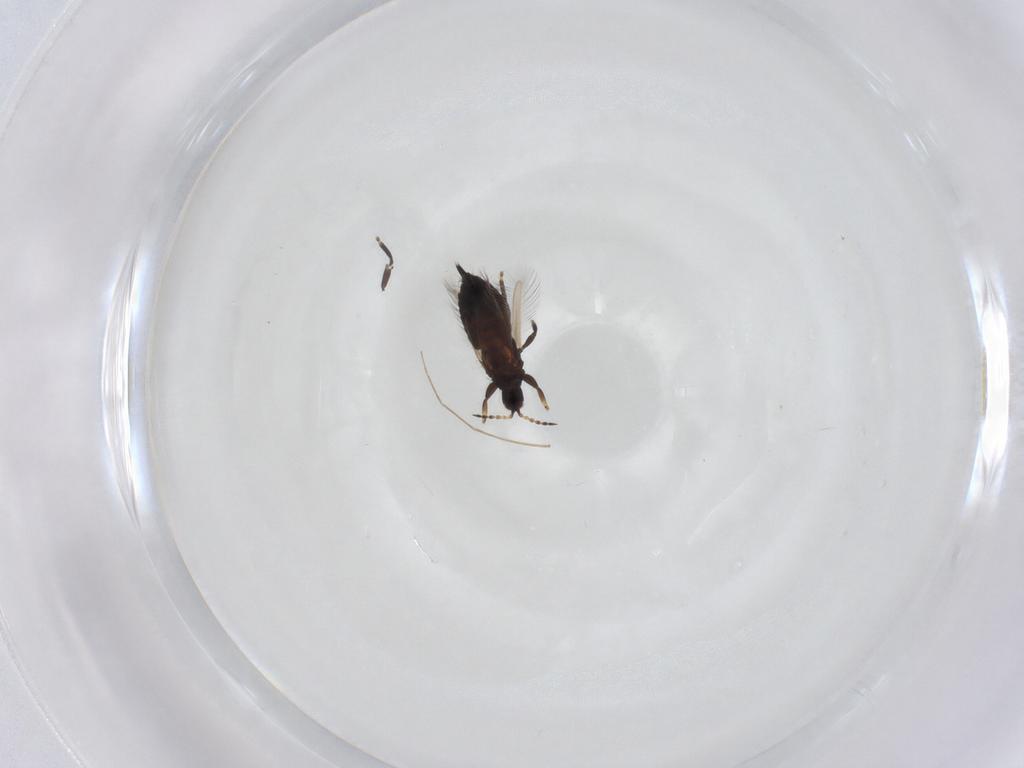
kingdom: Animalia
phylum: Arthropoda
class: Insecta
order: Thysanoptera
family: Phlaeothripidae
